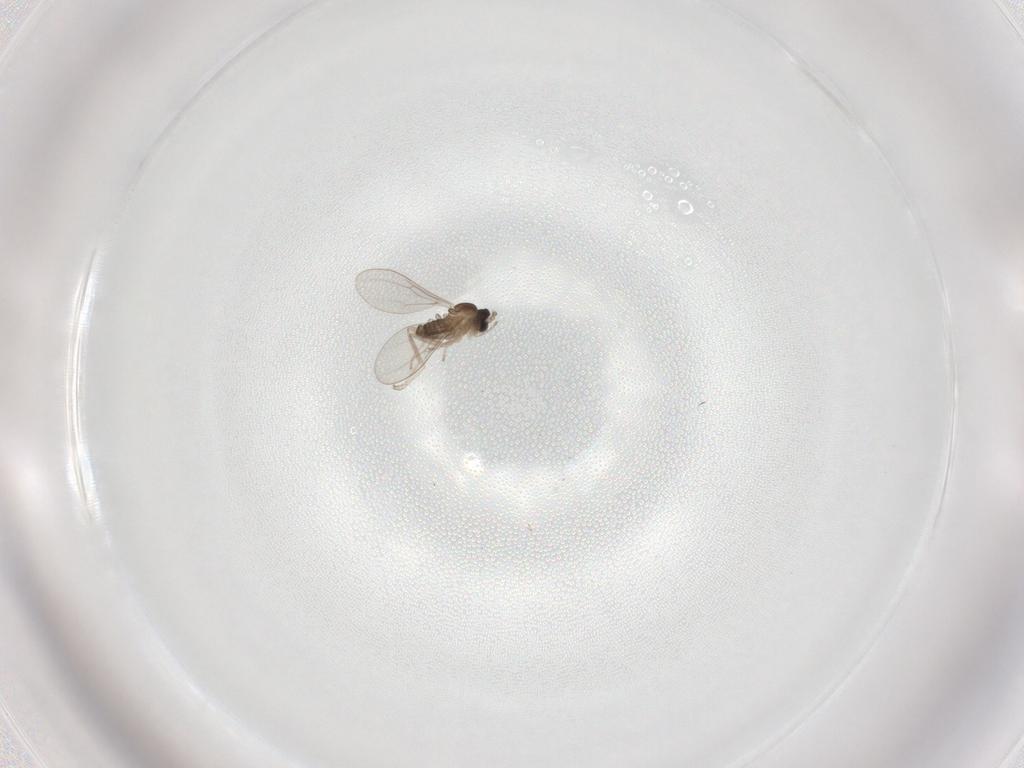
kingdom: Animalia
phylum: Arthropoda
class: Insecta
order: Diptera
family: Cecidomyiidae
